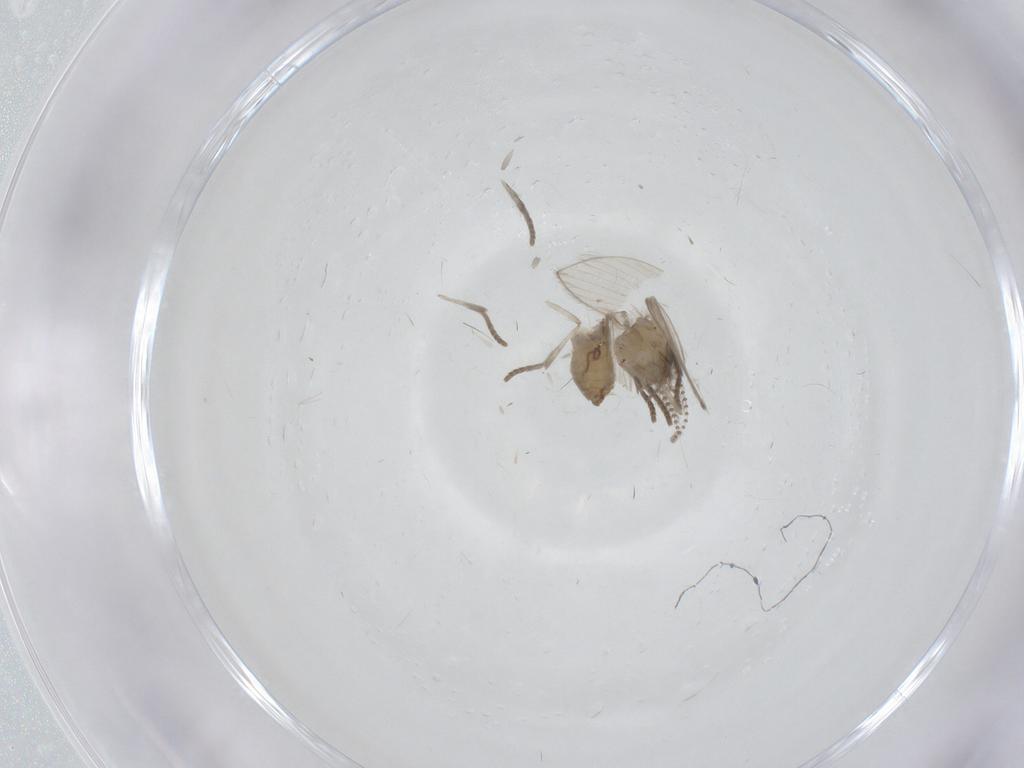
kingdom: Animalia
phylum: Arthropoda
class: Insecta
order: Diptera
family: Psychodidae
